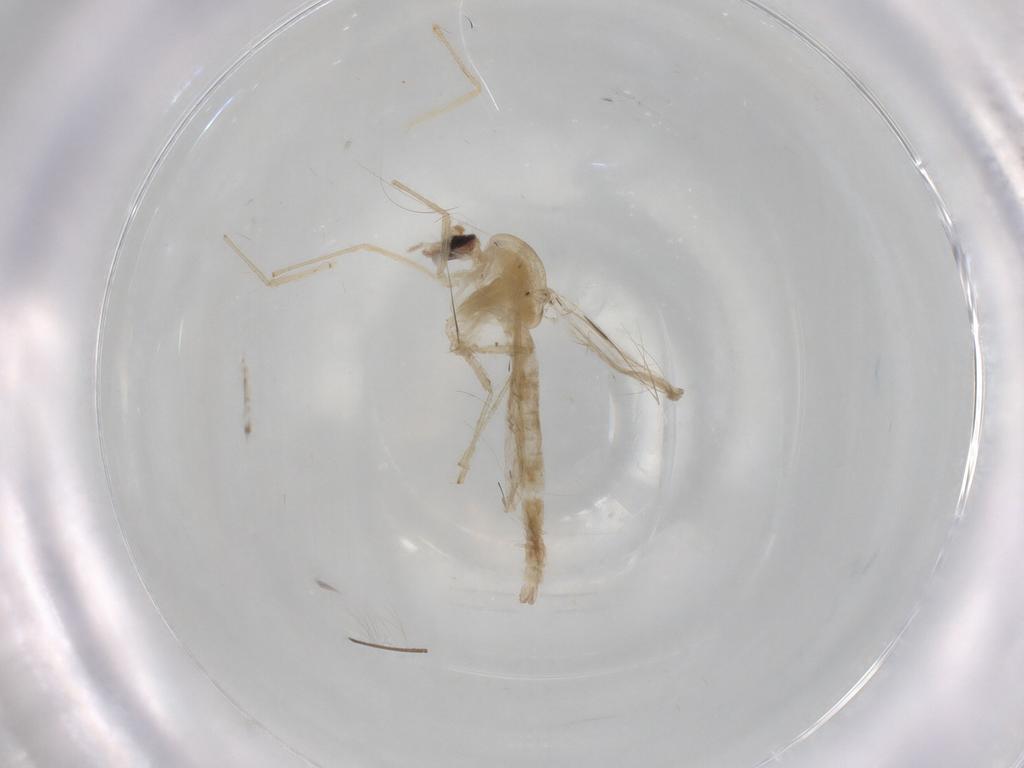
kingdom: Animalia
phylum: Arthropoda
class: Insecta
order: Diptera
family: Chironomidae
